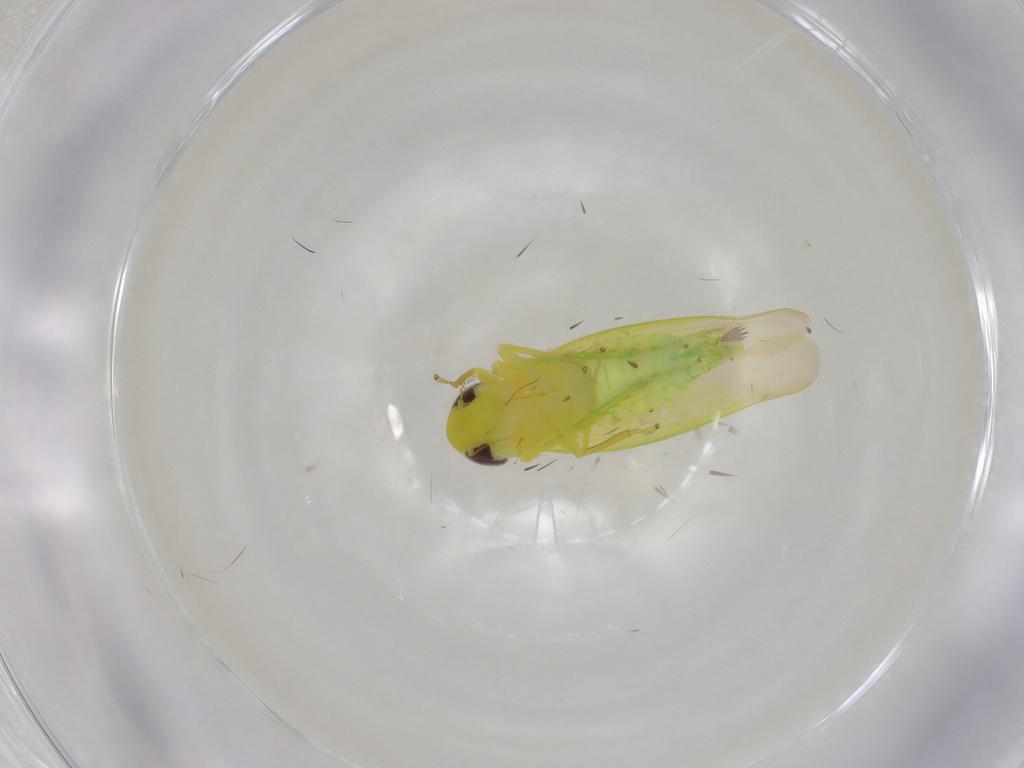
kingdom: Animalia
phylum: Arthropoda
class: Insecta
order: Hemiptera
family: Cicadellidae
